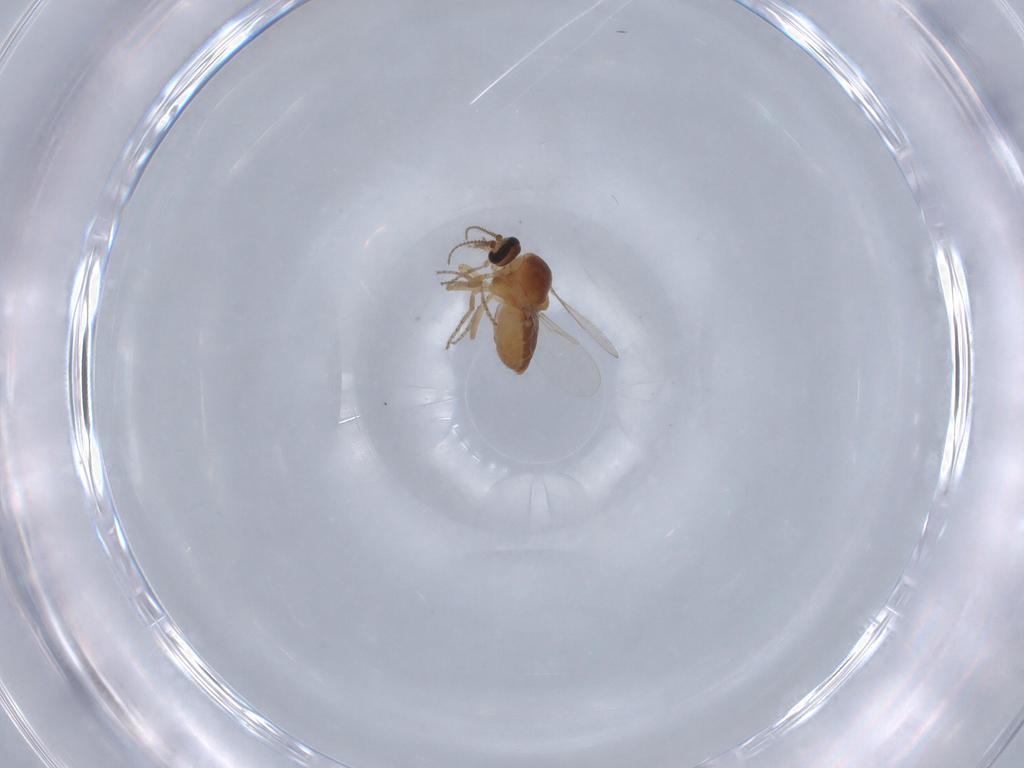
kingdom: Animalia
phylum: Arthropoda
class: Insecta
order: Diptera
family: Ceratopogonidae
